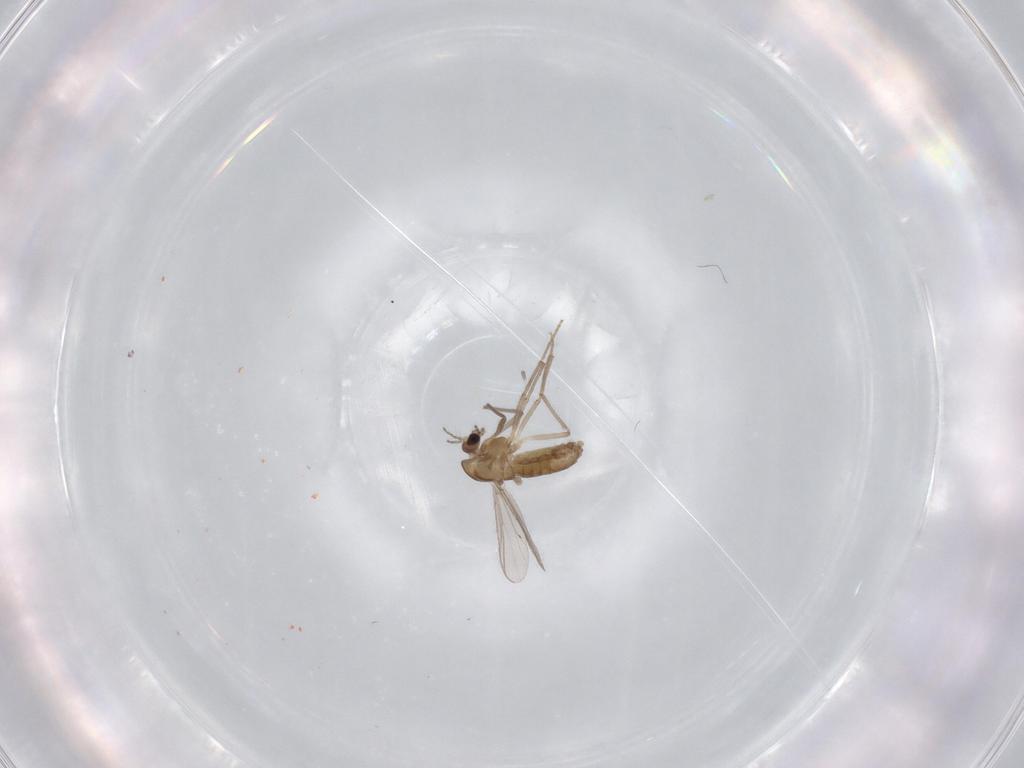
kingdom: Animalia
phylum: Arthropoda
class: Insecta
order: Diptera
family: Chironomidae
